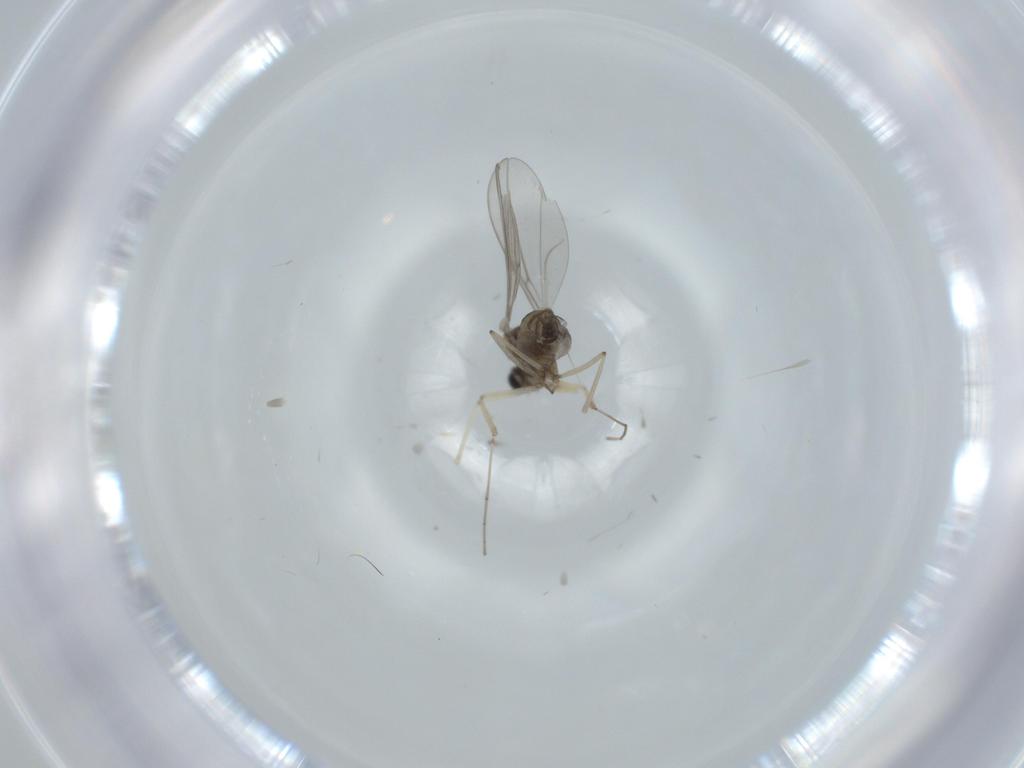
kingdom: Animalia
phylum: Arthropoda
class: Insecta
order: Diptera
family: Cecidomyiidae
